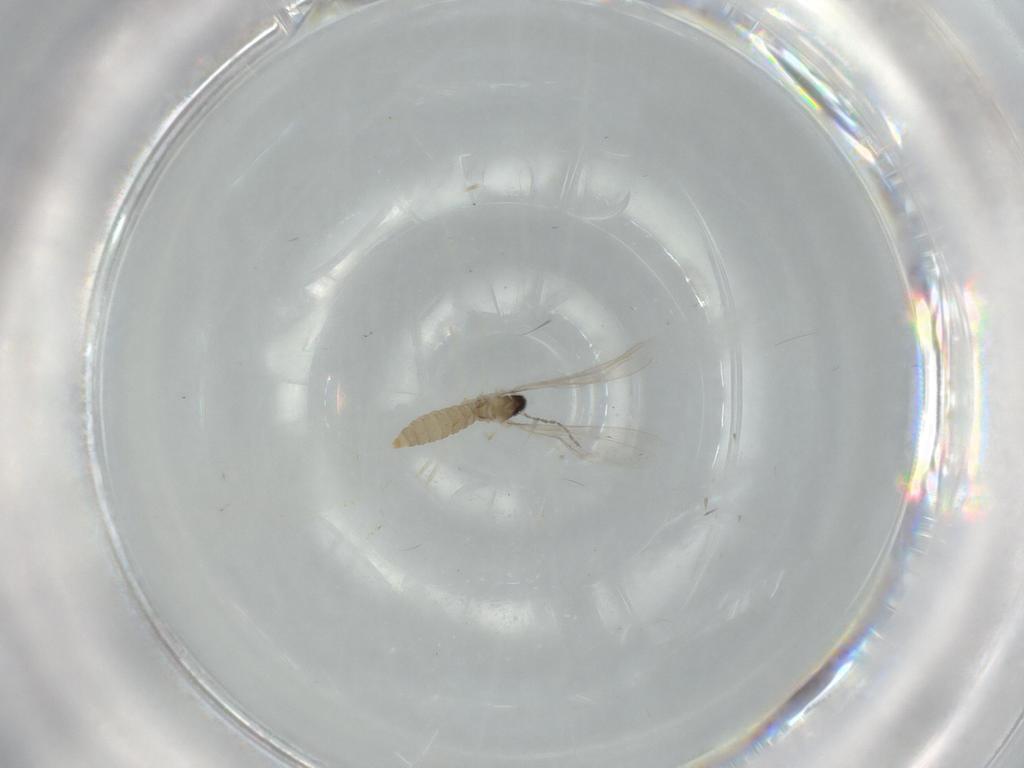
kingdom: Animalia
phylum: Arthropoda
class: Insecta
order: Diptera
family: Cecidomyiidae
